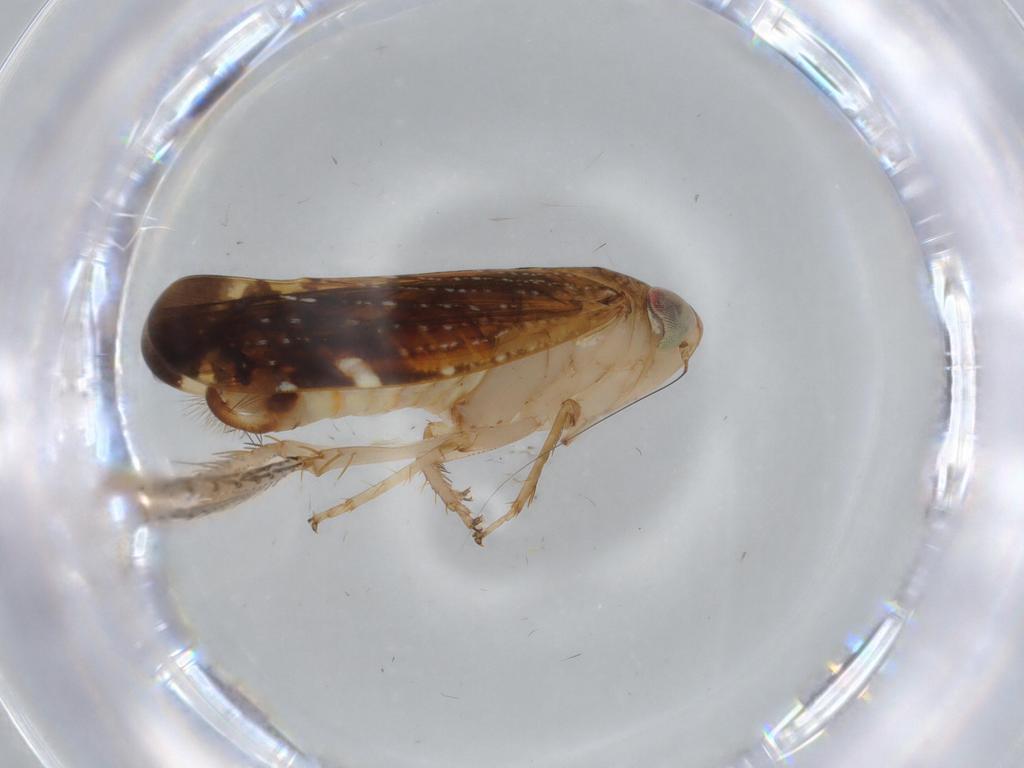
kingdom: Animalia
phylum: Arthropoda
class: Insecta
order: Hemiptera
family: Cicadellidae
